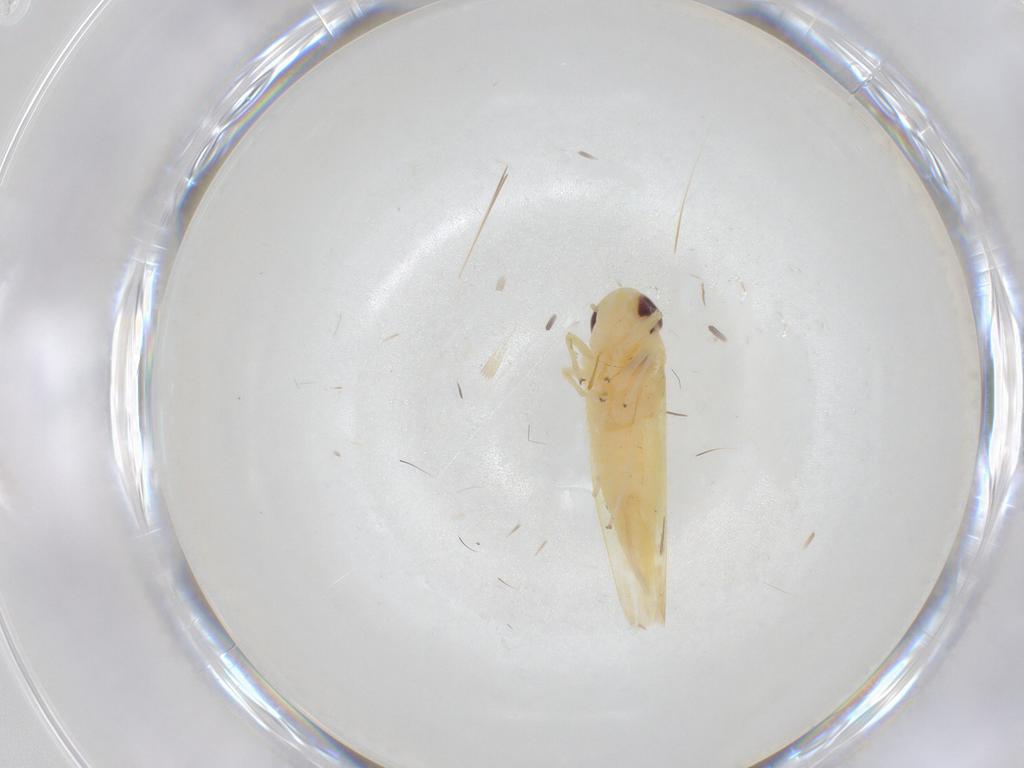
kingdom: Animalia
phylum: Arthropoda
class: Insecta
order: Hemiptera
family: Cicadellidae
